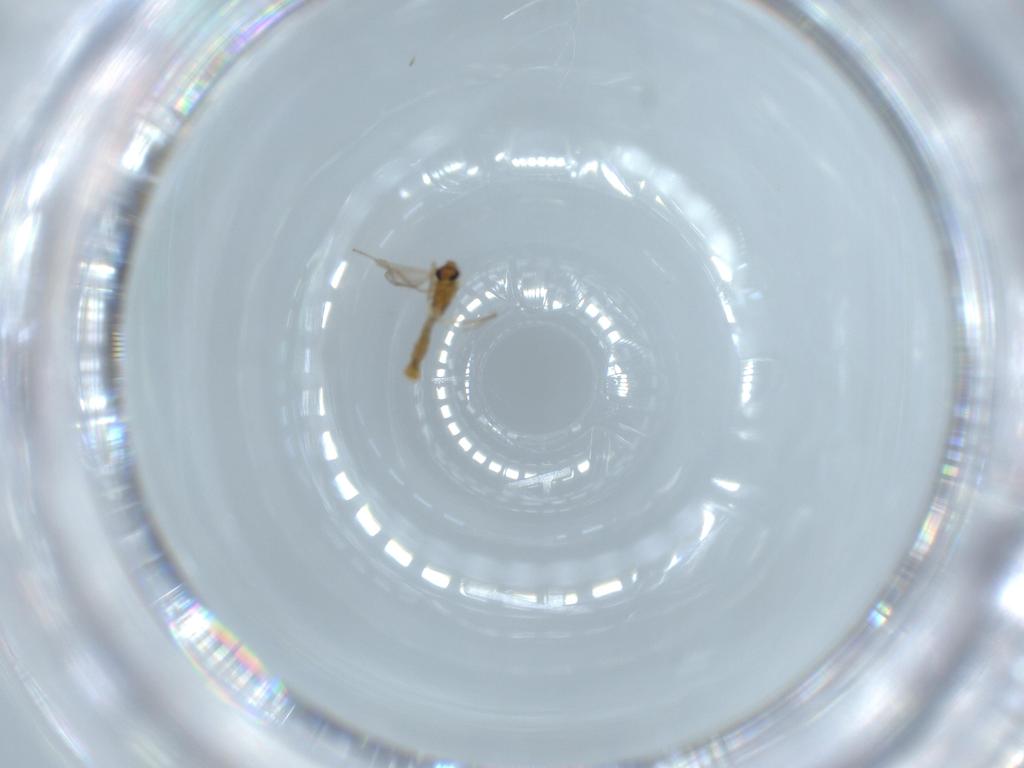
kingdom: Animalia
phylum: Arthropoda
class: Insecta
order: Diptera
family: Chironomidae
